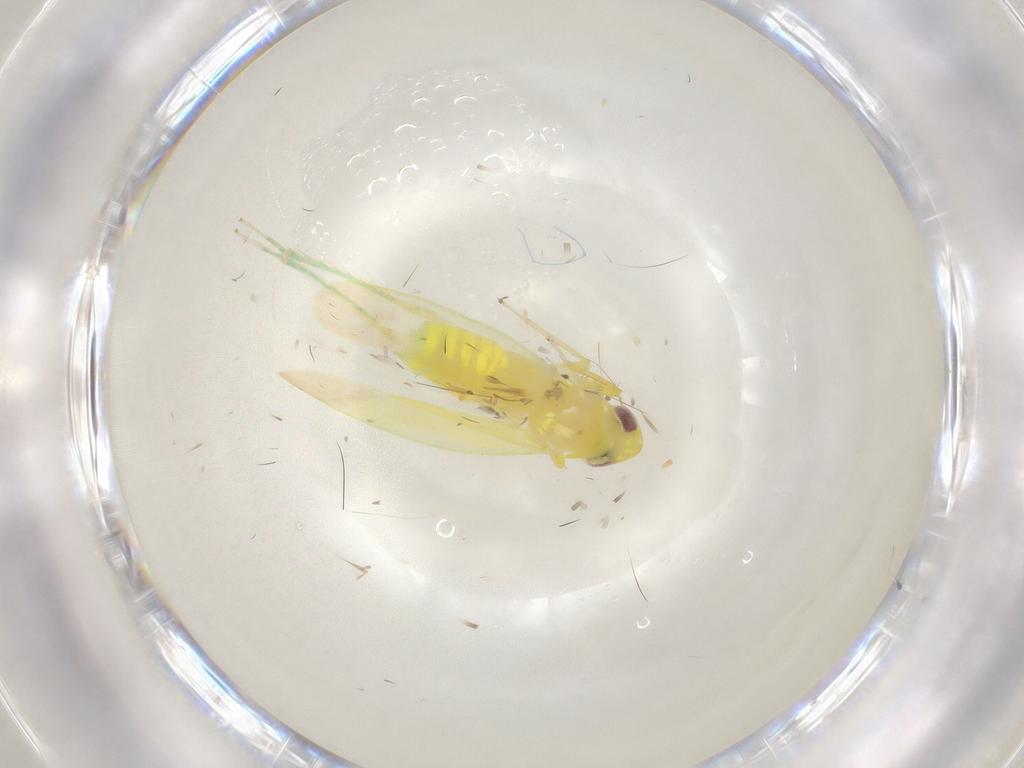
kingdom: Animalia
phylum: Arthropoda
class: Insecta
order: Hemiptera
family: Cicadellidae
